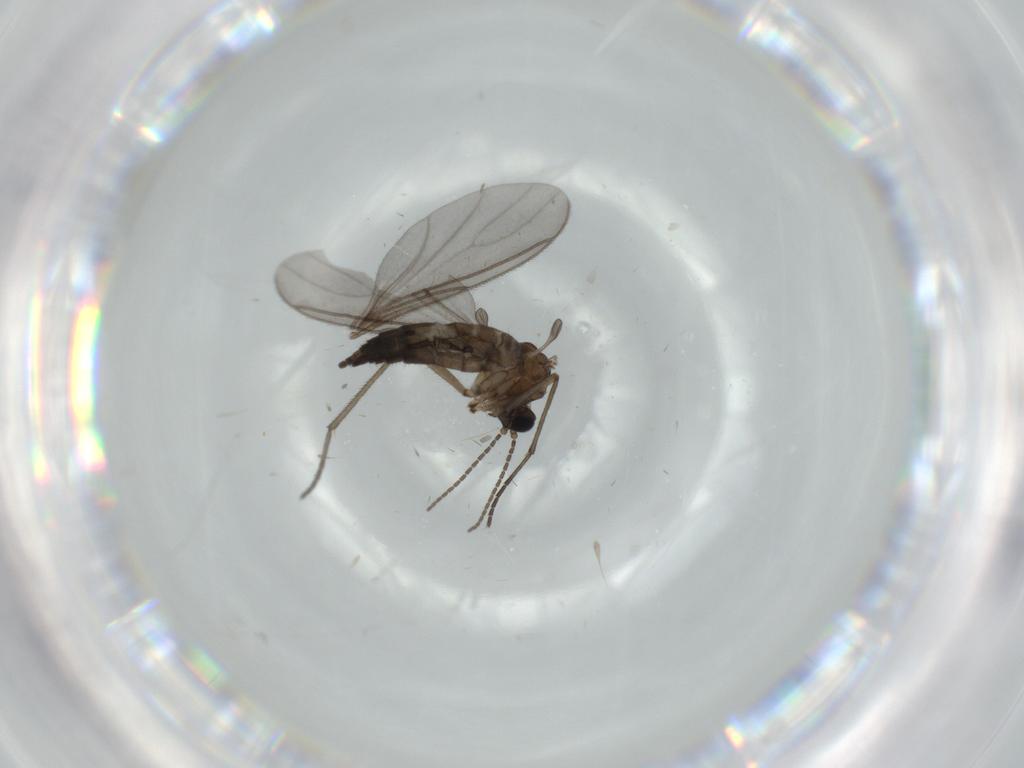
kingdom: Animalia
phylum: Arthropoda
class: Insecta
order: Diptera
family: Sciaridae
